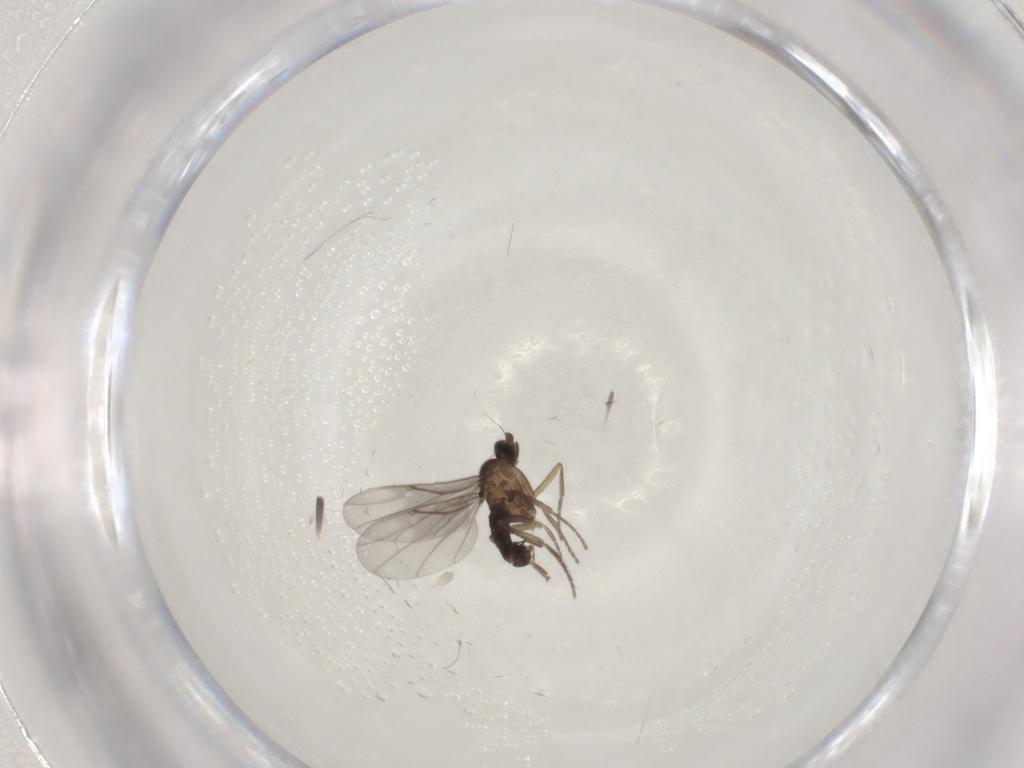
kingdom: Animalia
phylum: Arthropoda
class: Insecta
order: Diptera
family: Phoridae
